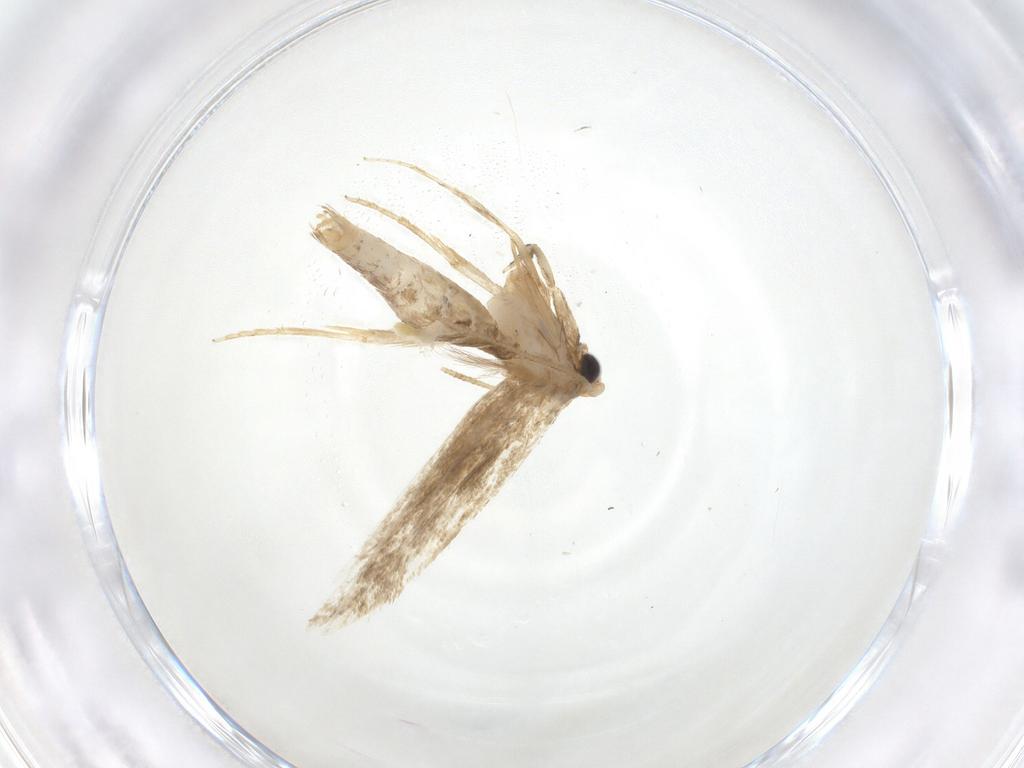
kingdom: Animalia
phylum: Arthropoda
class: Insecta
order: Lepidoptera
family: Tineidae
